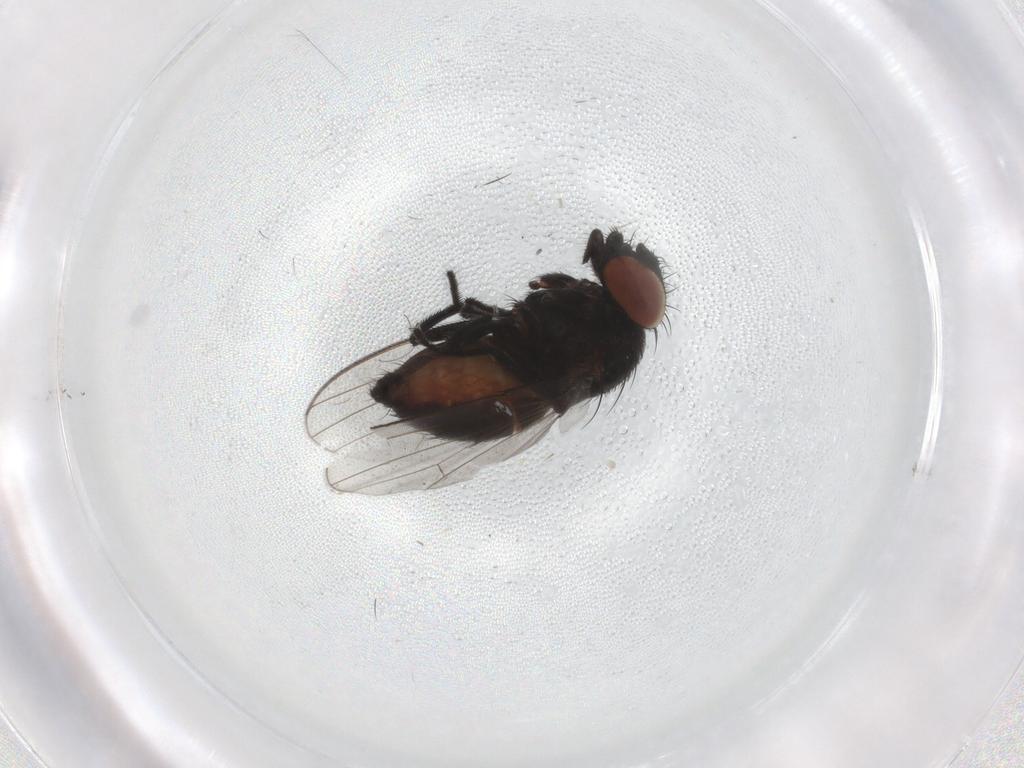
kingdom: Animalia
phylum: Arthropoda
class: Insecta
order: Diptera
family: Milichiidae
